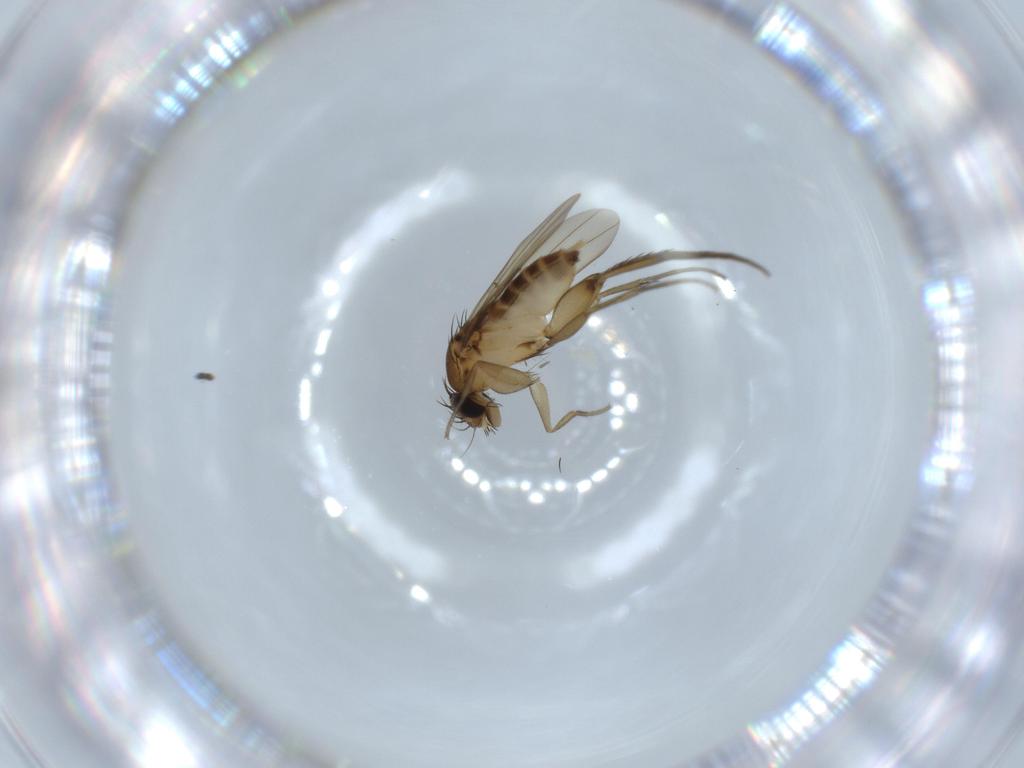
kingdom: Animalia
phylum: Arthropoda
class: Insecta
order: Diptera
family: Phoridae
